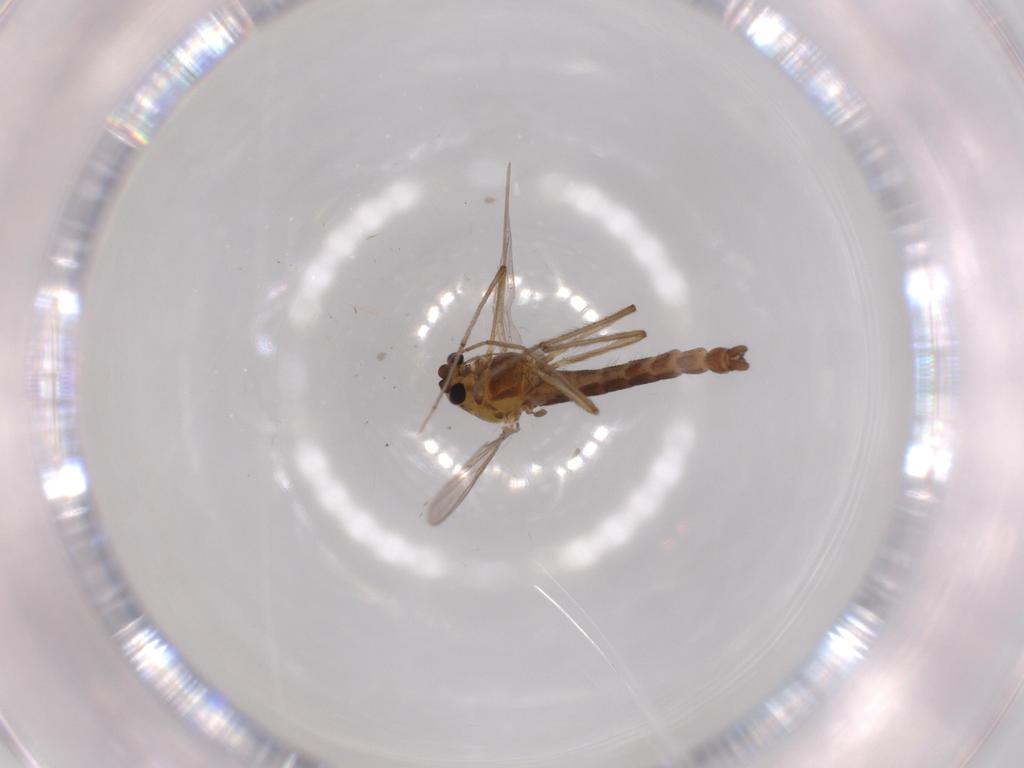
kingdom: Animalia
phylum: Arthropoda
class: Insecta
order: Diptera
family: Chironomidae
